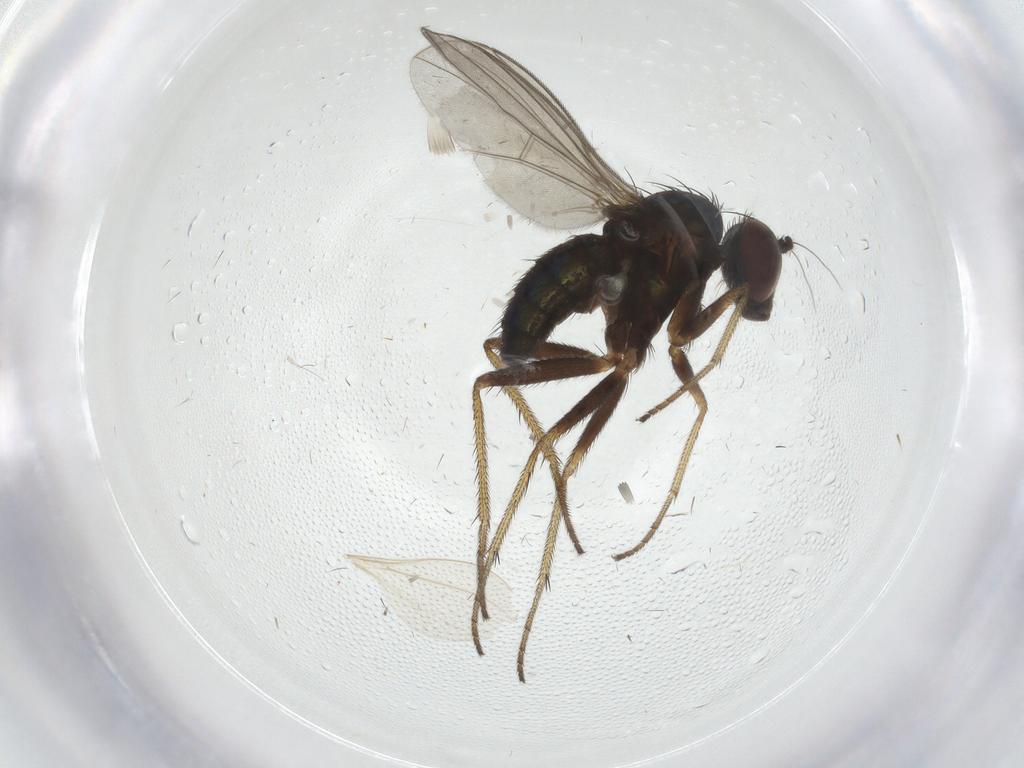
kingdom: Animalia
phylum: Arthropoda
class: Insecta
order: Diptera
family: Dolichopodidae
